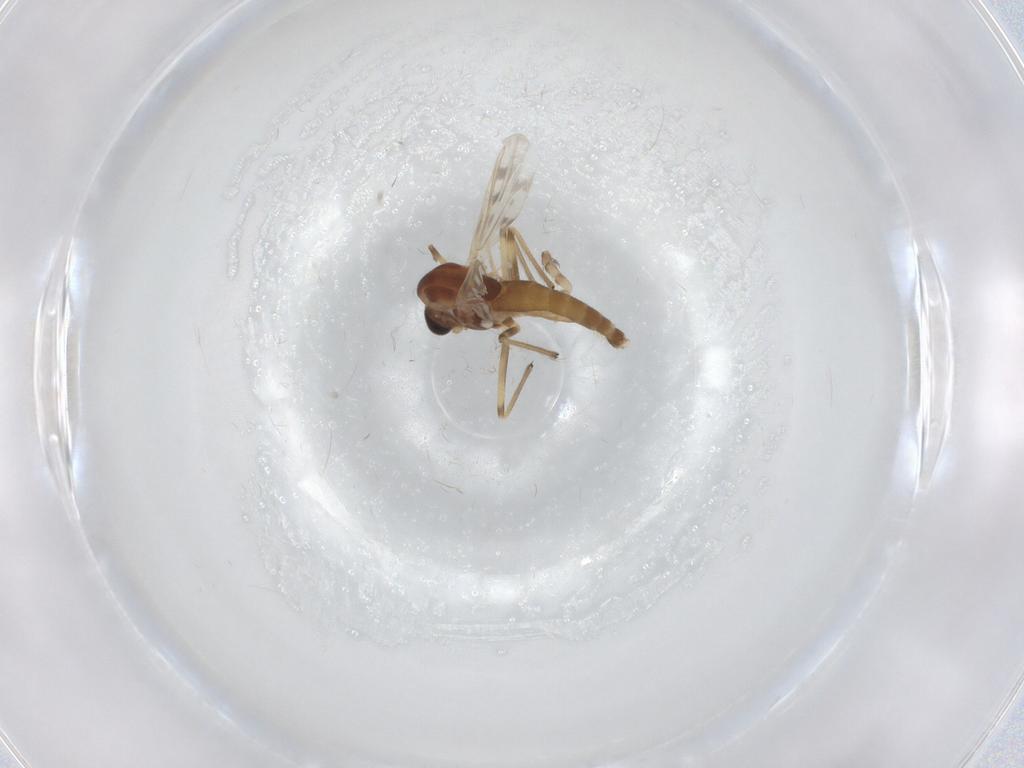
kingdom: Animalia
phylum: Arthropoda
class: Insecta
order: Diptera
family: Chironomidae
